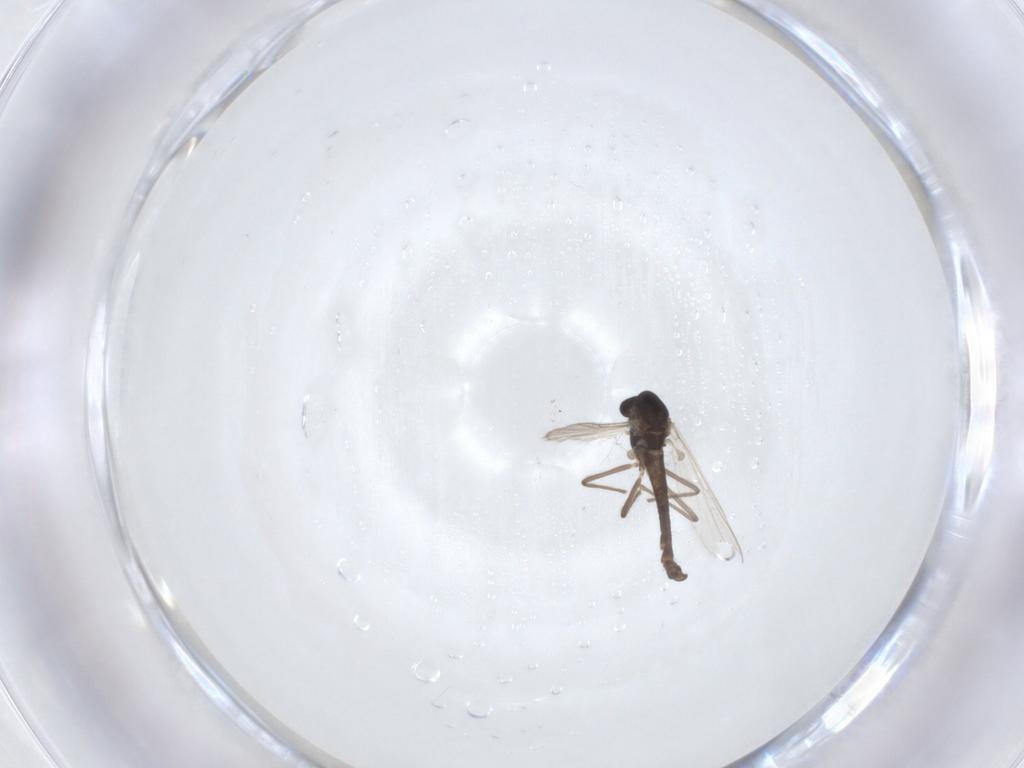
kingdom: Animalia
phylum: Arthropoda
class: Insecta
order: Diptera
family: Chironomidae
